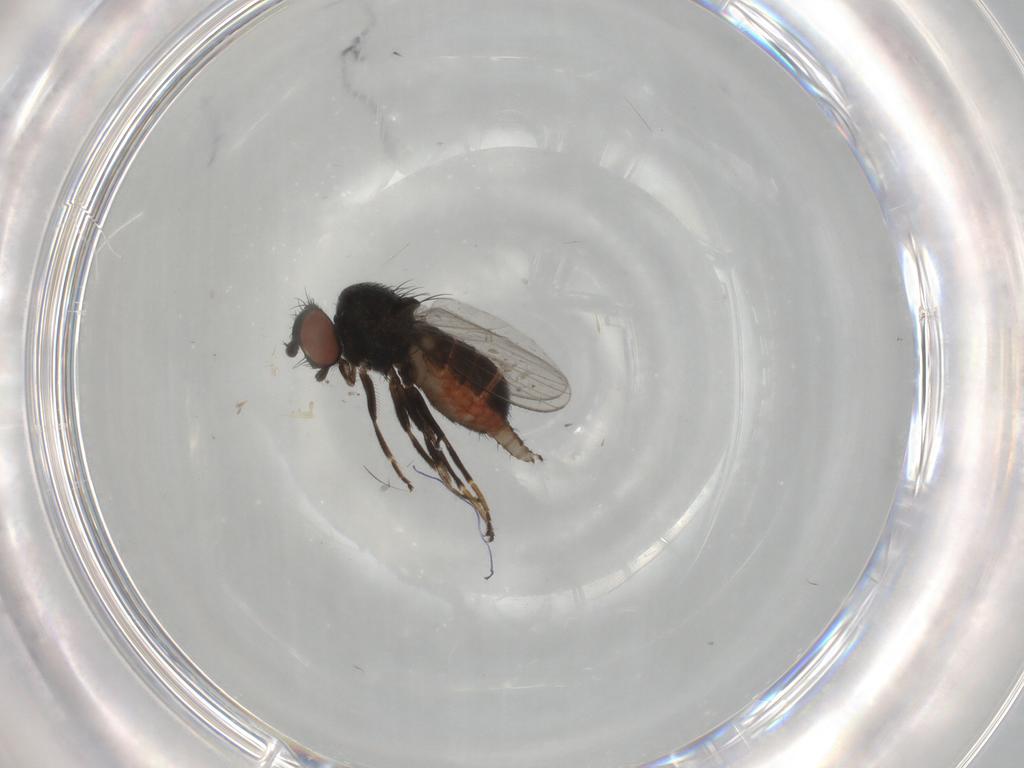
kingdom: Animalia
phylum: Arthropoda
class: Insecta
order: Diptera
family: Milichiidae
